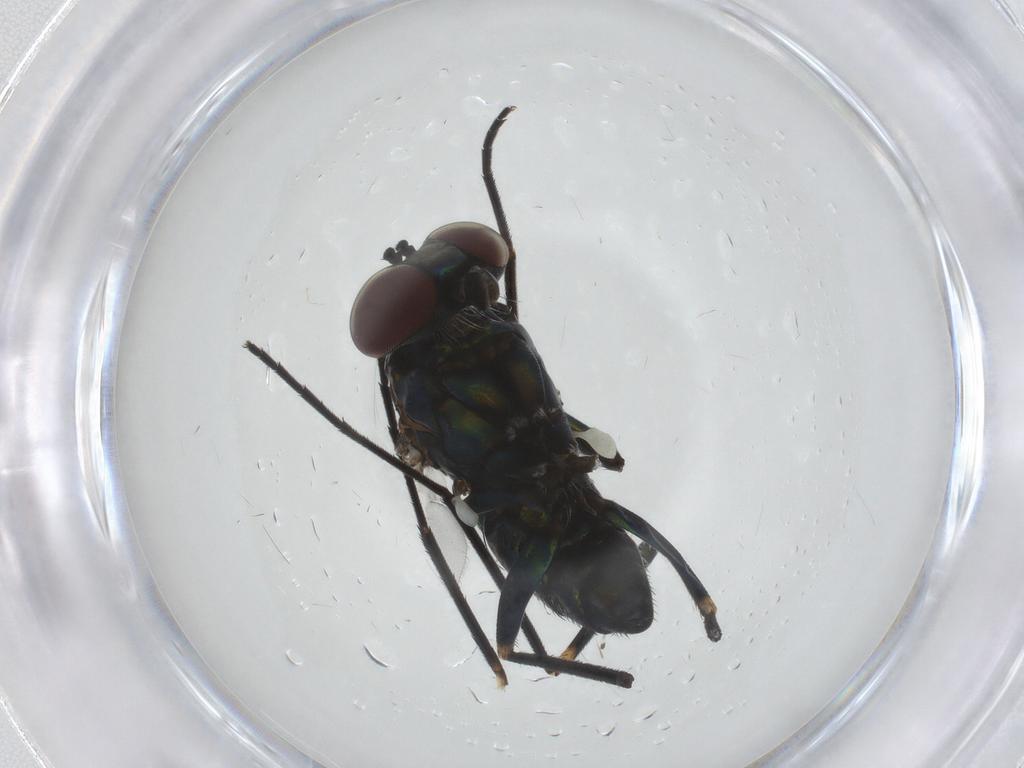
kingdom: Animalia
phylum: Arthropoda
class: Insecta
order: Diptera
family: Dolichopodidae
